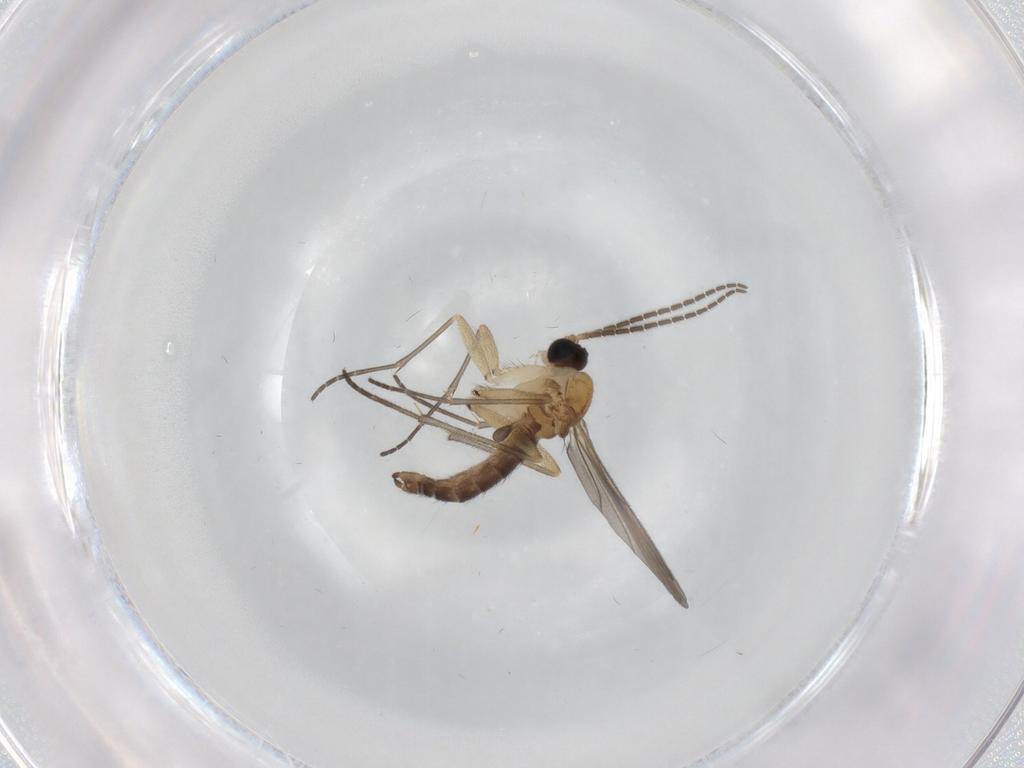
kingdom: Animalia
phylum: Arthropoda
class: Insecta
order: Diptera
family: Sciaridae
